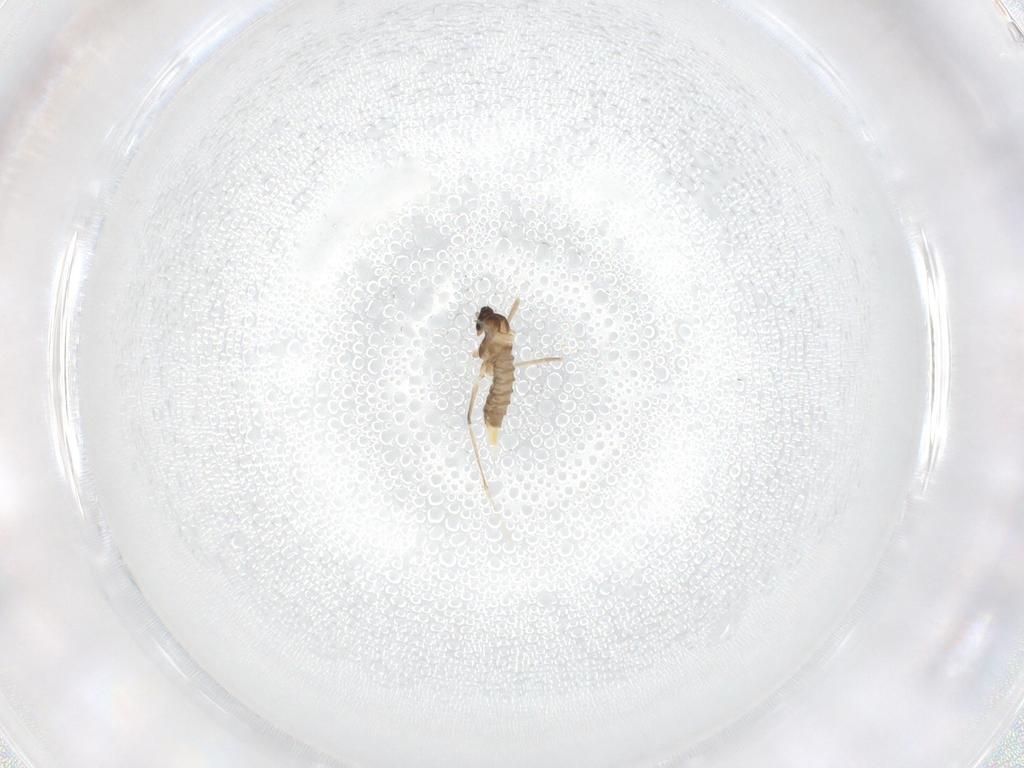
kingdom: Animalia
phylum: Arthropoda
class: Insecta
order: Diptera
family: Cecidomyiidae
